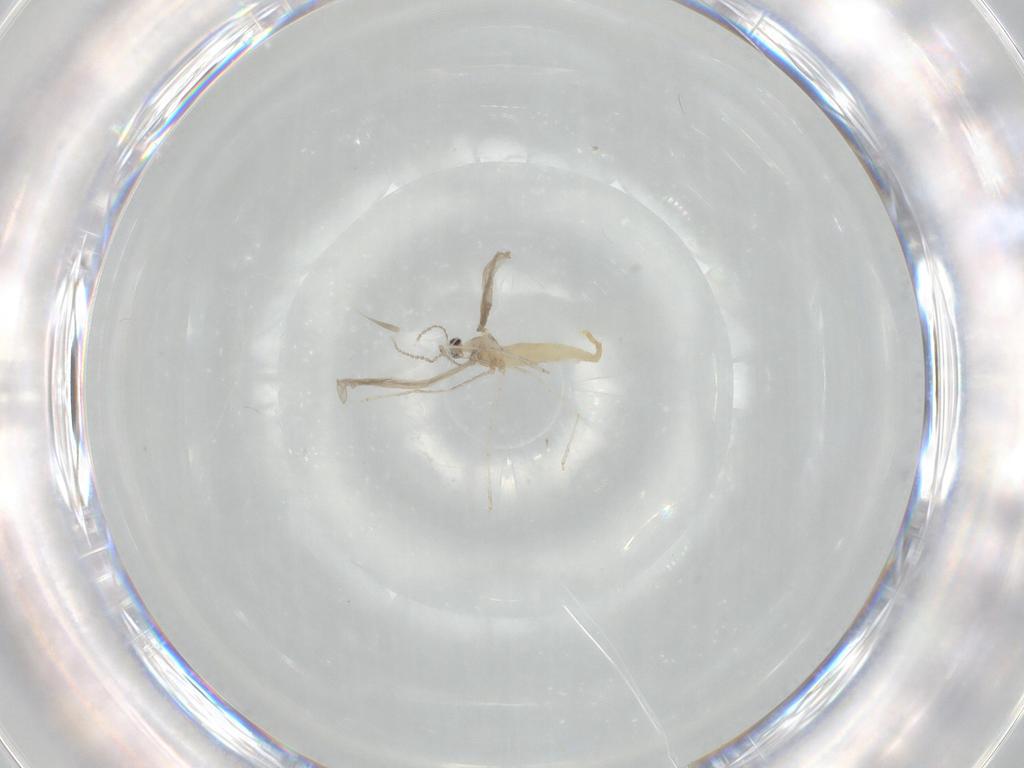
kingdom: Animalia
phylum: Arthropoda
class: Insecta
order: Diptera
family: Cecidomyiidae
